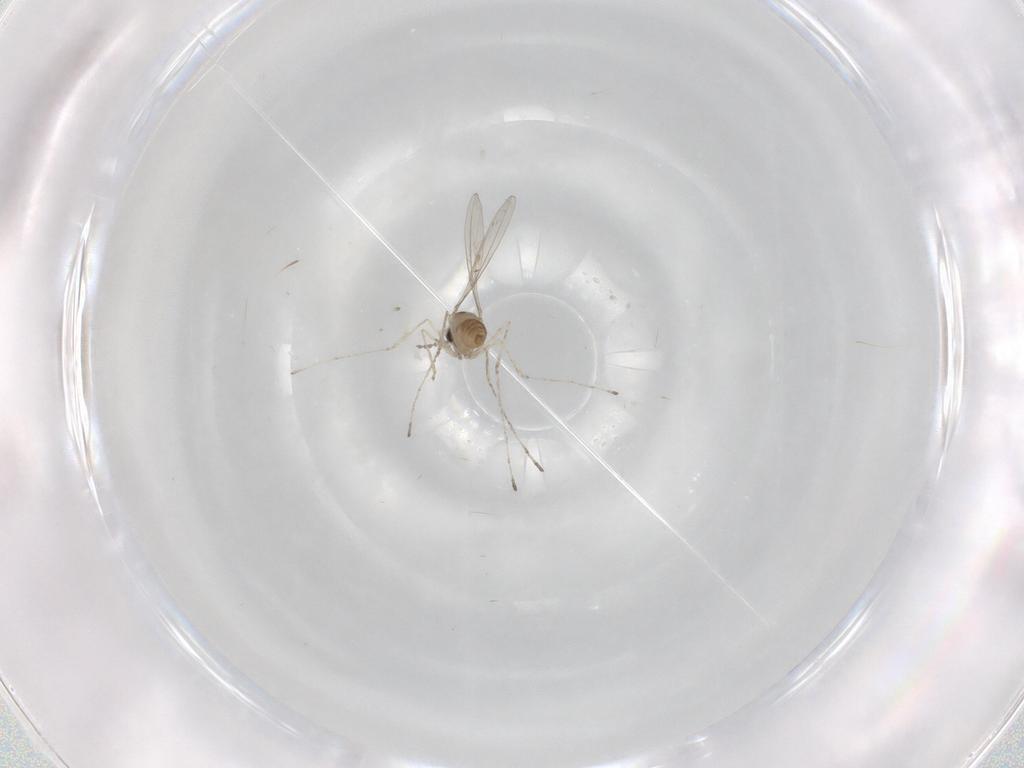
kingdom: Animalia
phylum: Arthropoda
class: Insecta
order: Diptera
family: Cecidomyiidae
